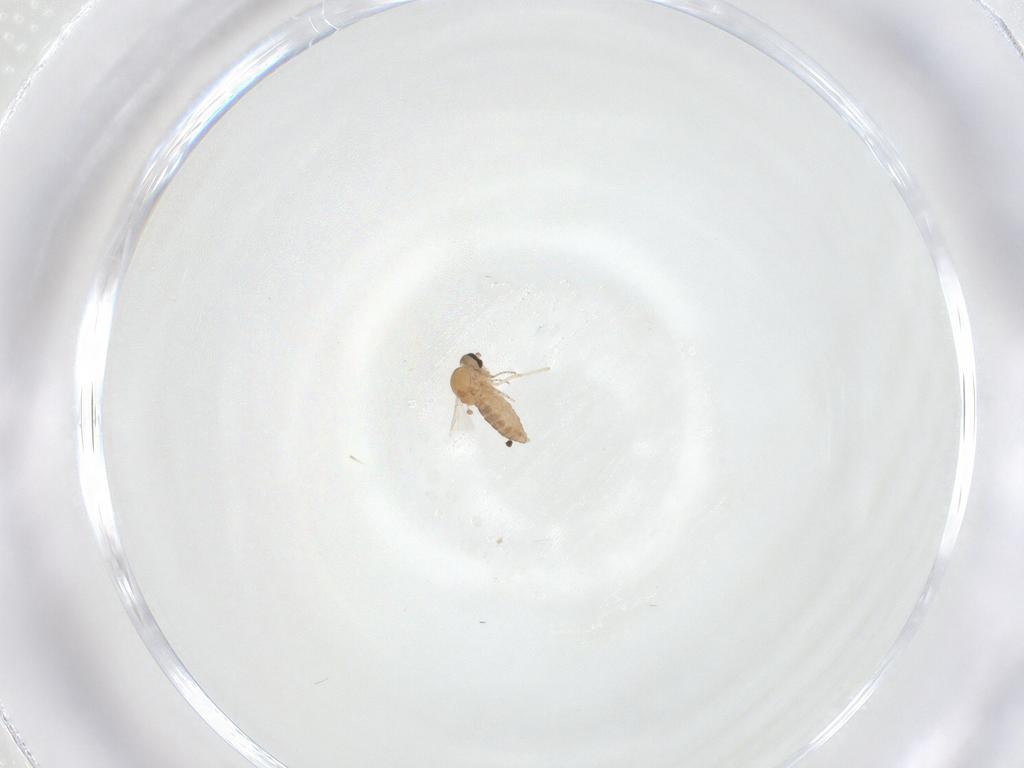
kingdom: Animalia
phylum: Arthropoda
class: Insecta
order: Diptera
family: Ceratopogonidae
